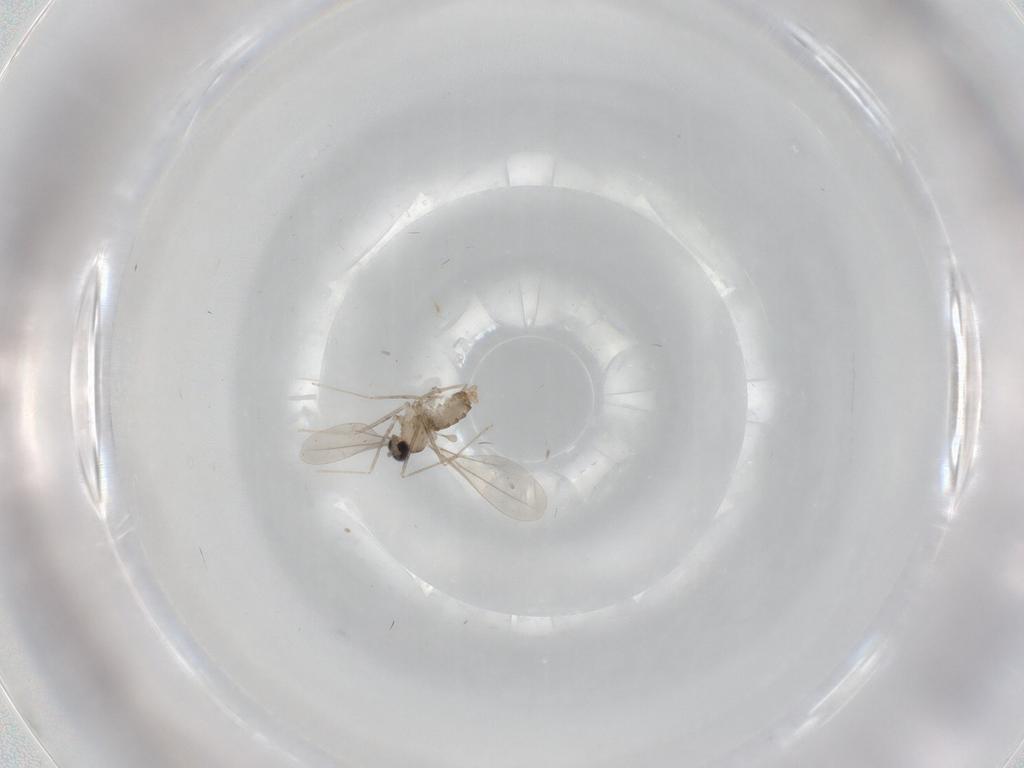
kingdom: Animalia
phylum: Arthropoda
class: Insecta
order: Diptera
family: Cecidomyiidae
